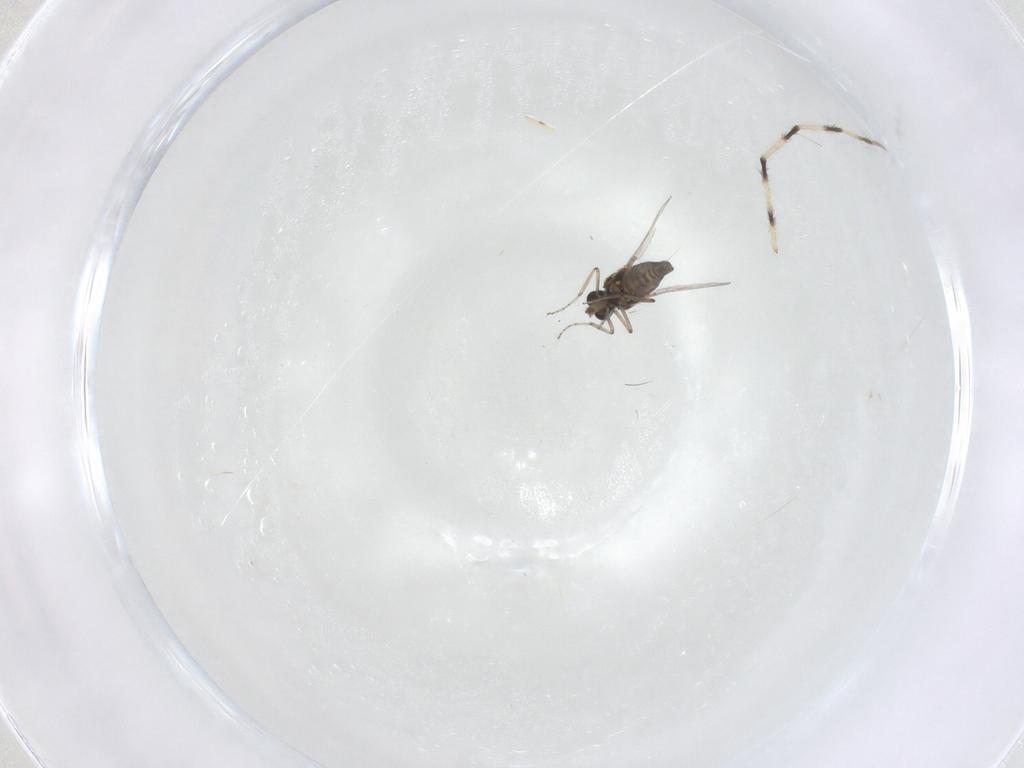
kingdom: Animalia
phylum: Arthropoda
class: Insecta
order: Diptera
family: Ceratopogonidae
